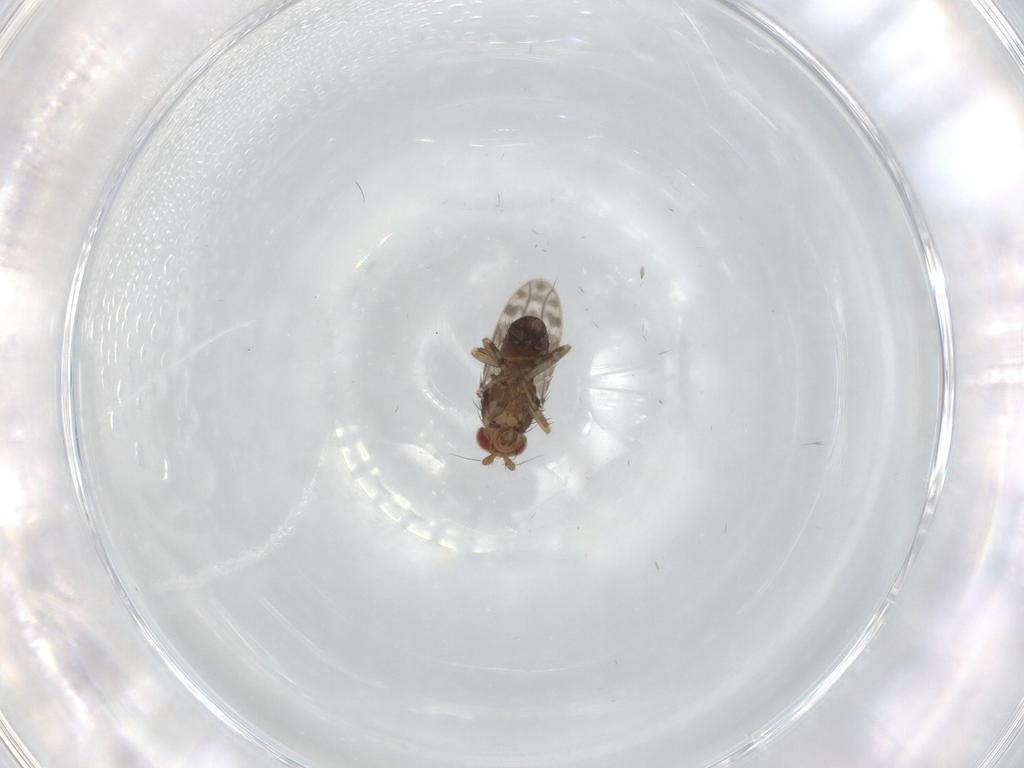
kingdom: Animalia
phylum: Arthropoda
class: Insecta
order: Diptera
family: Sphaeroceridae
